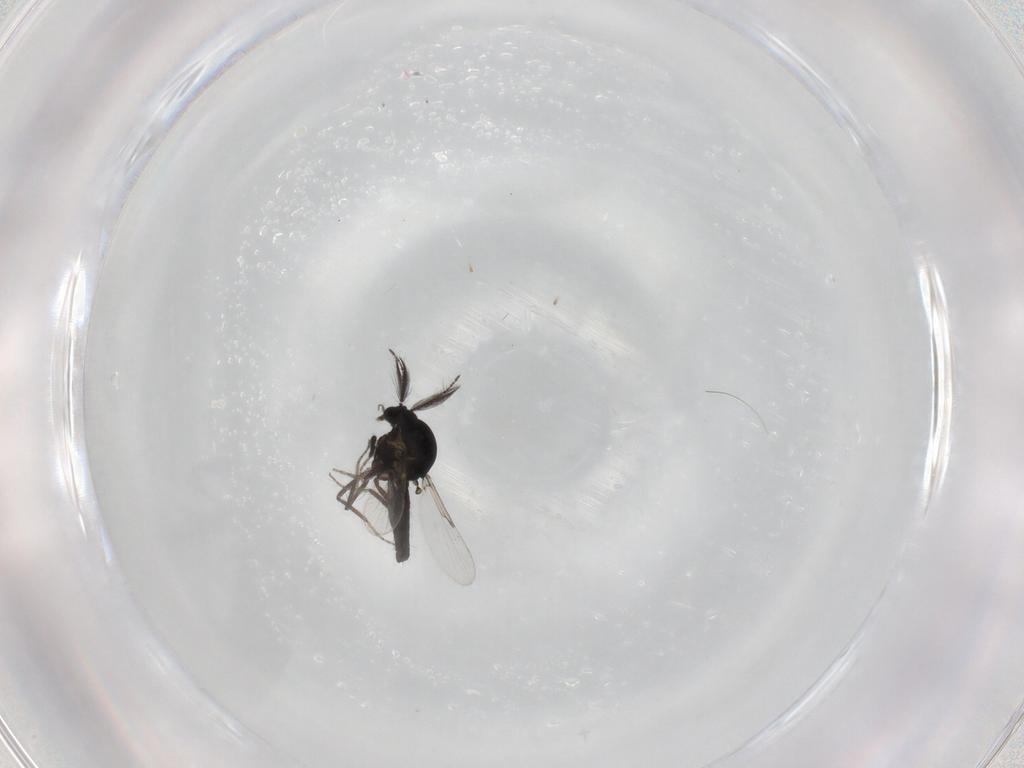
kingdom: Animalia
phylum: Arthropoda
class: Insecta
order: Diptera
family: Ceratopogonidae
